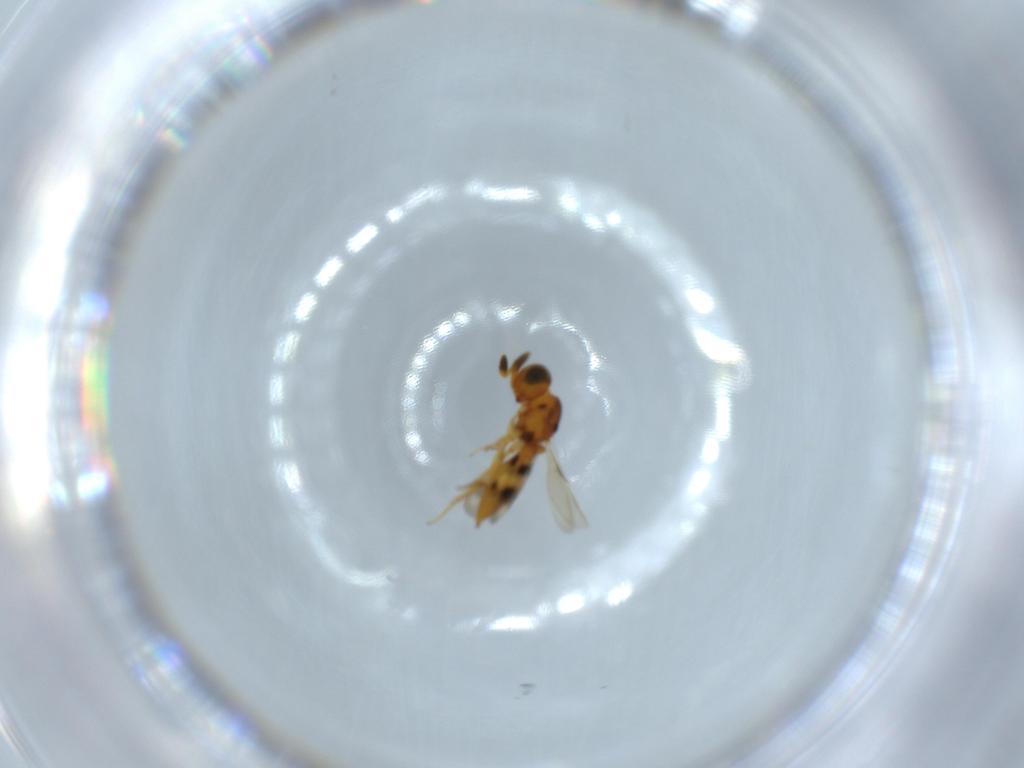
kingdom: Animalia
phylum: Arthropoda
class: Insecta
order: Hymenoptera
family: Scelionidae
